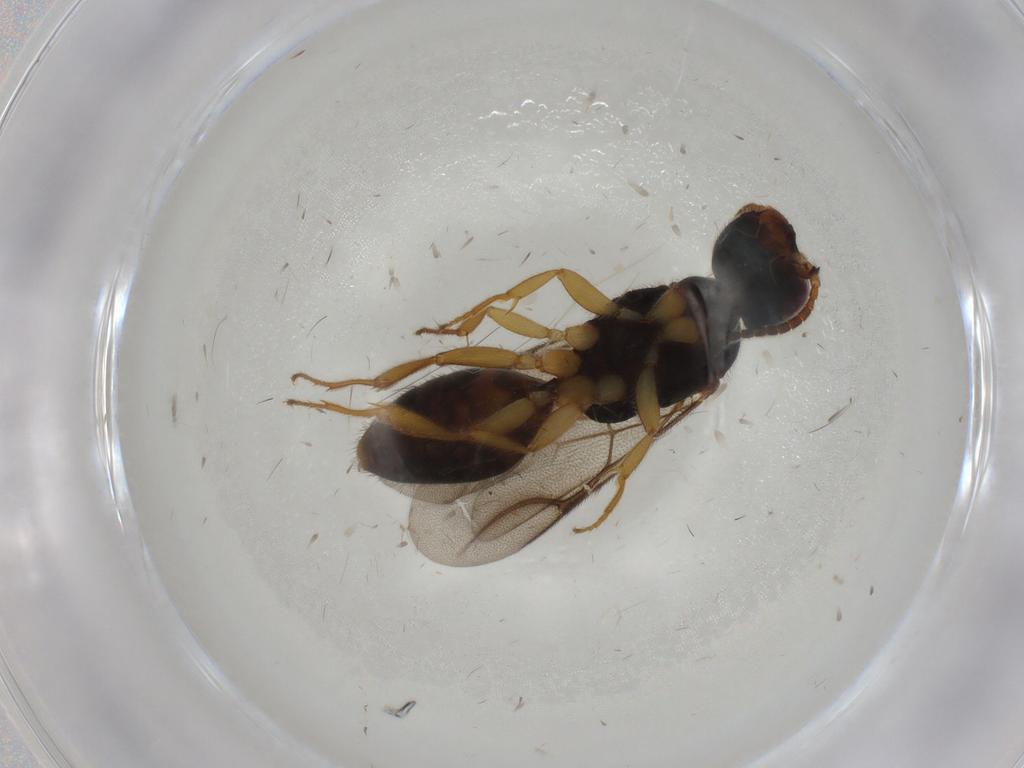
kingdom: Animalia
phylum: Arthropoda
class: Insecta
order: Hymenoptera
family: Bethylidae
